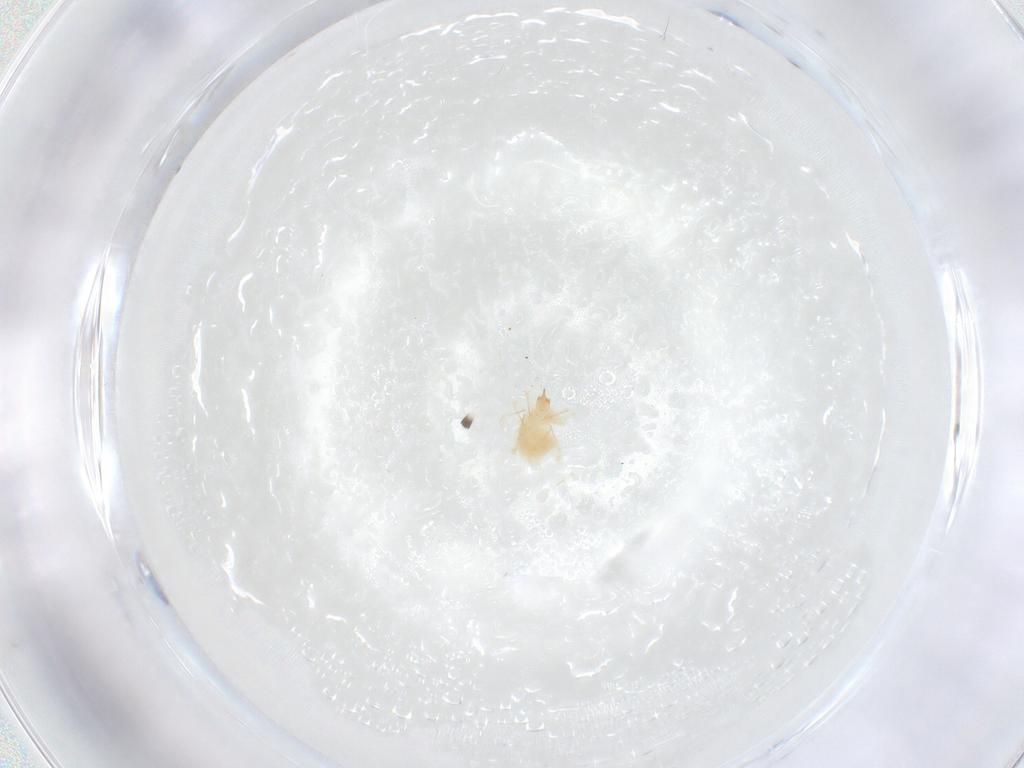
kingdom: Animalia
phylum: Arthropoda
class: Arachnida
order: Trombidiformes
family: Cunaxidae
